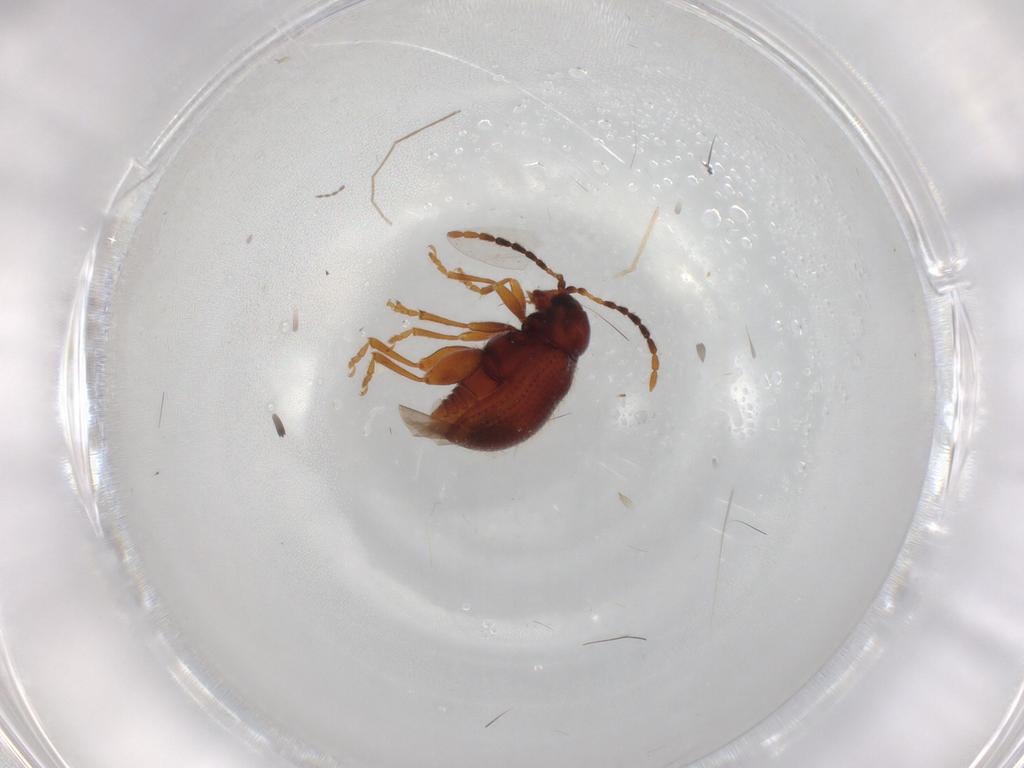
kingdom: Animalia
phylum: Arthropoda
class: Insecta
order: Coleoptera
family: Chrysomelidae
